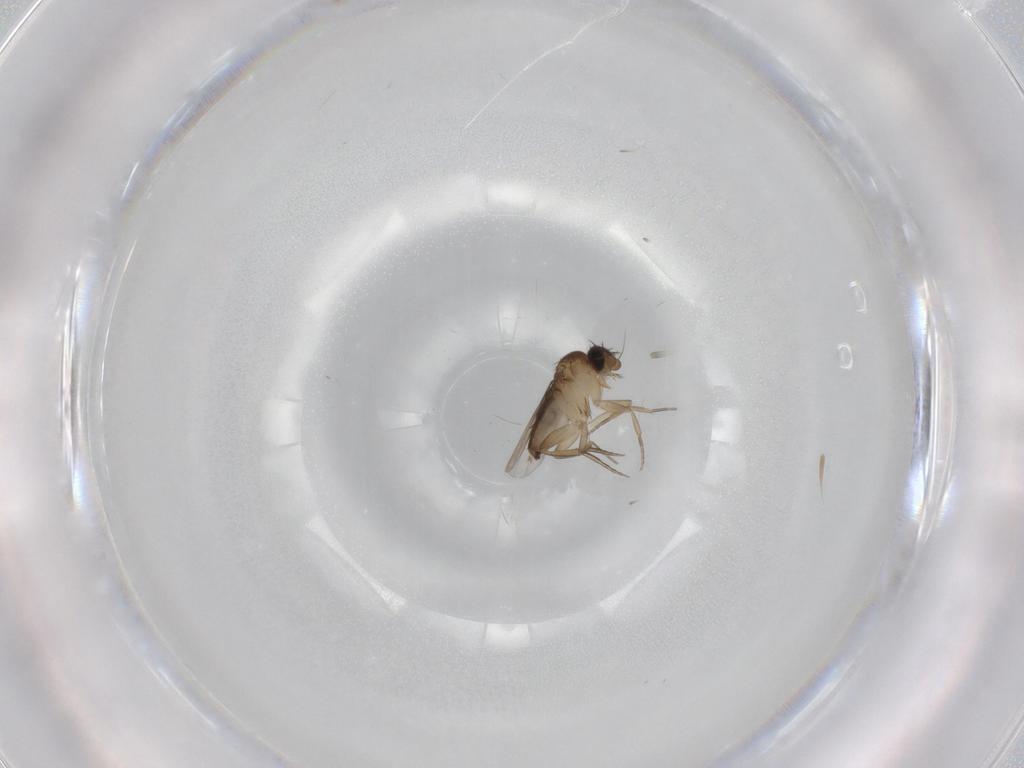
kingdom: Animalia
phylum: Arthropoda
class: Insecta
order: Diptera
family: Phoridae
